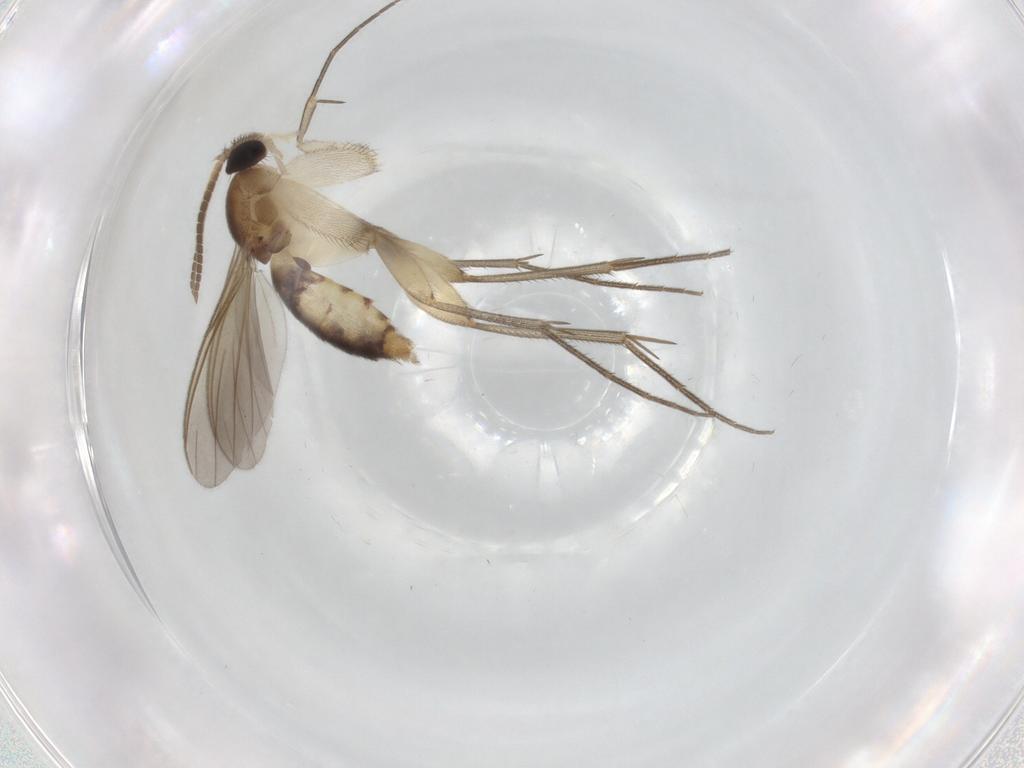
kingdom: Animalia
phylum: Arthropoda
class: Insecta
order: Diptera
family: Mycetophilidae
